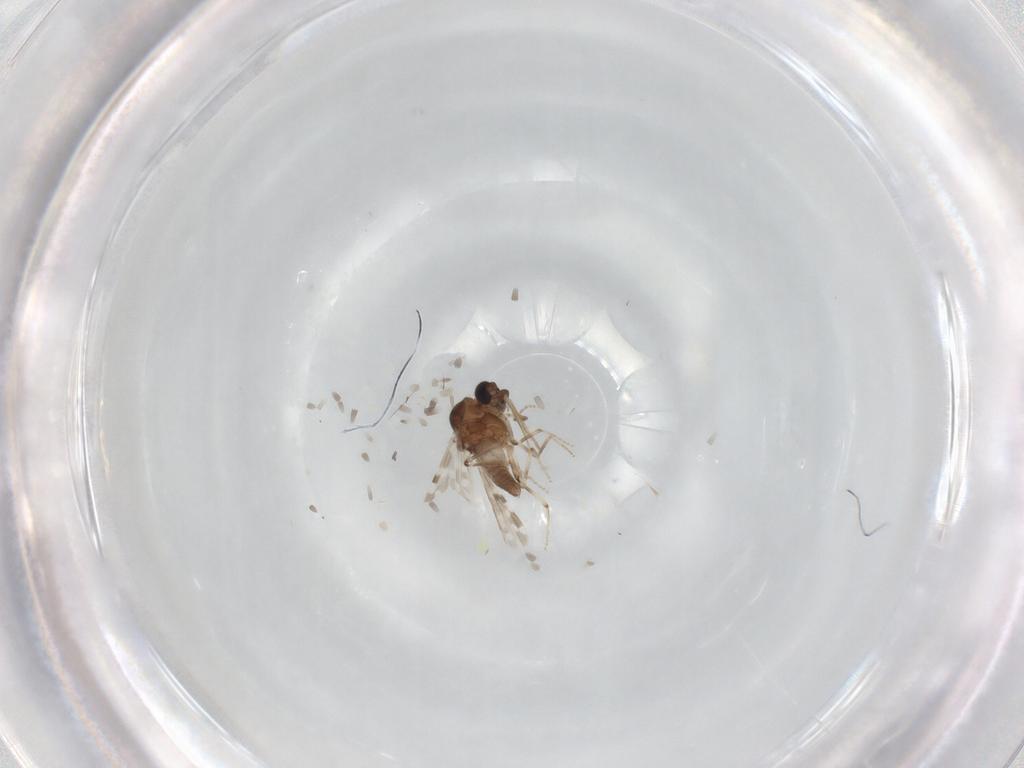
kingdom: Animalia
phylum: Arthropoda
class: Insecta
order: Diptera
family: Ceratopogonidae
